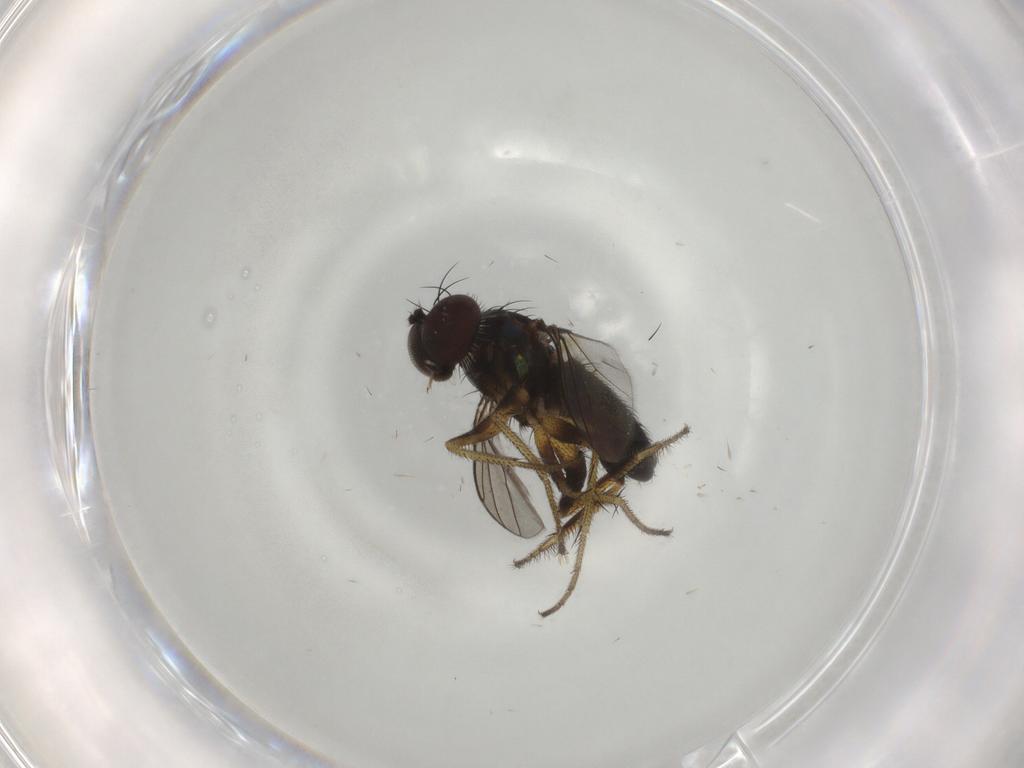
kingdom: Animalia
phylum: Arthropoda
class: Insecta
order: Diptera
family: Dolichopodidae
